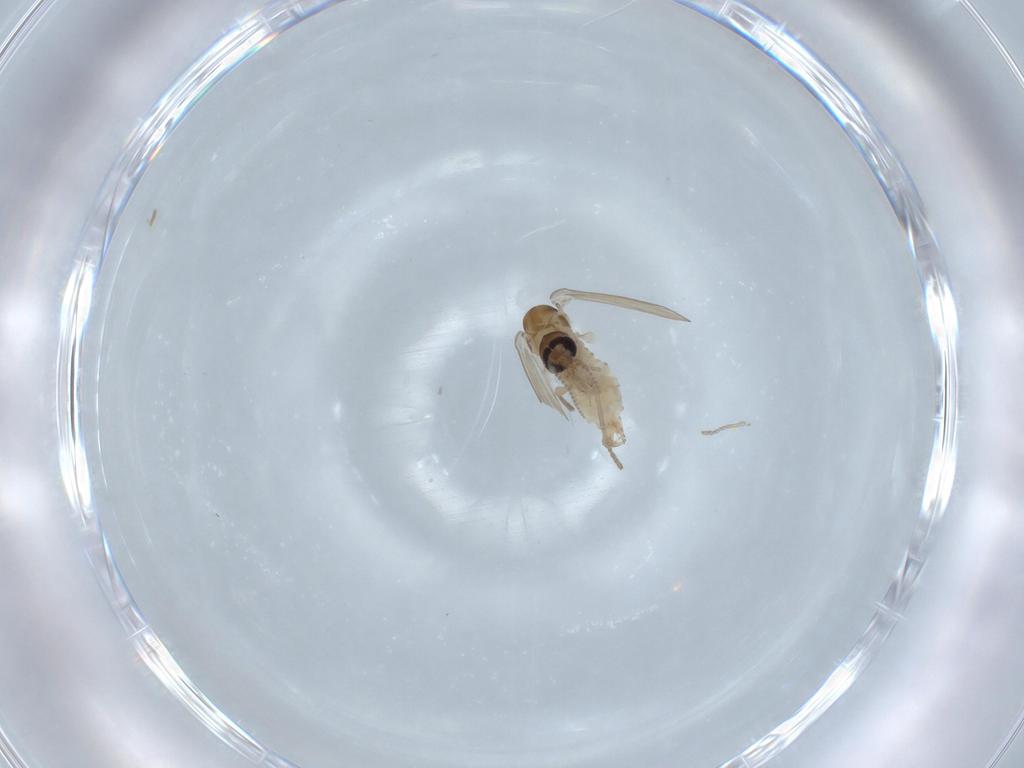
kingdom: Animalia
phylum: Arthropoda
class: Insecta
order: Diptera
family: Psychodidae
